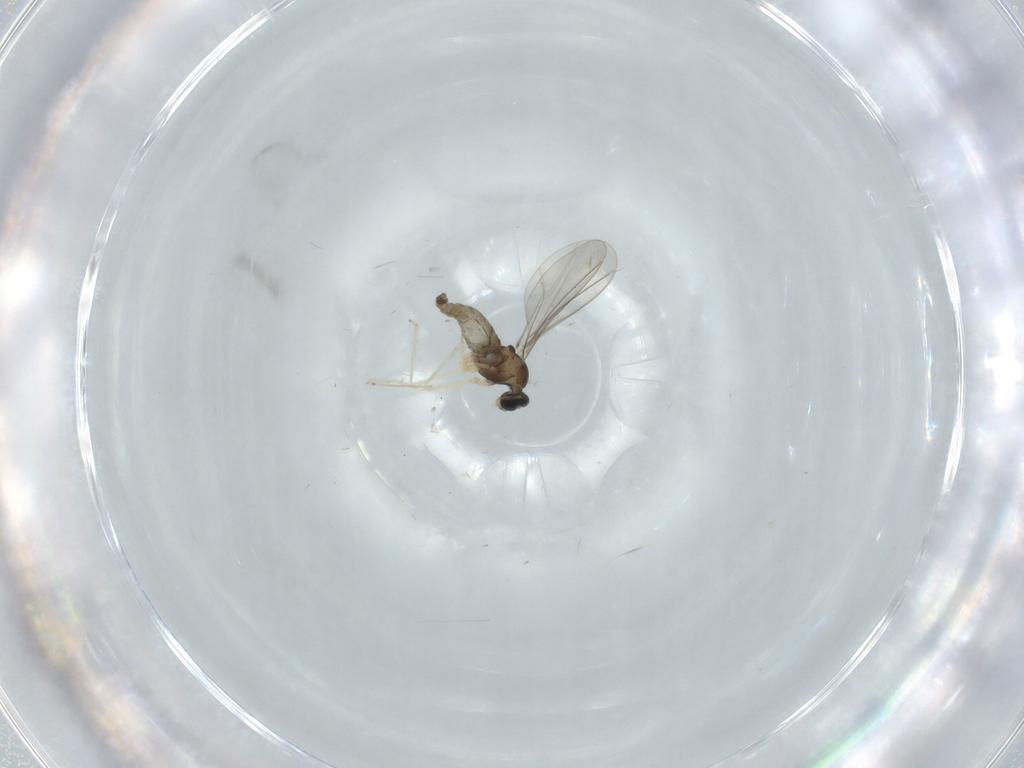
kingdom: Animalia
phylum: Arthropoda
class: Insecta
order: Diptera
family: Cecidomyiidae
